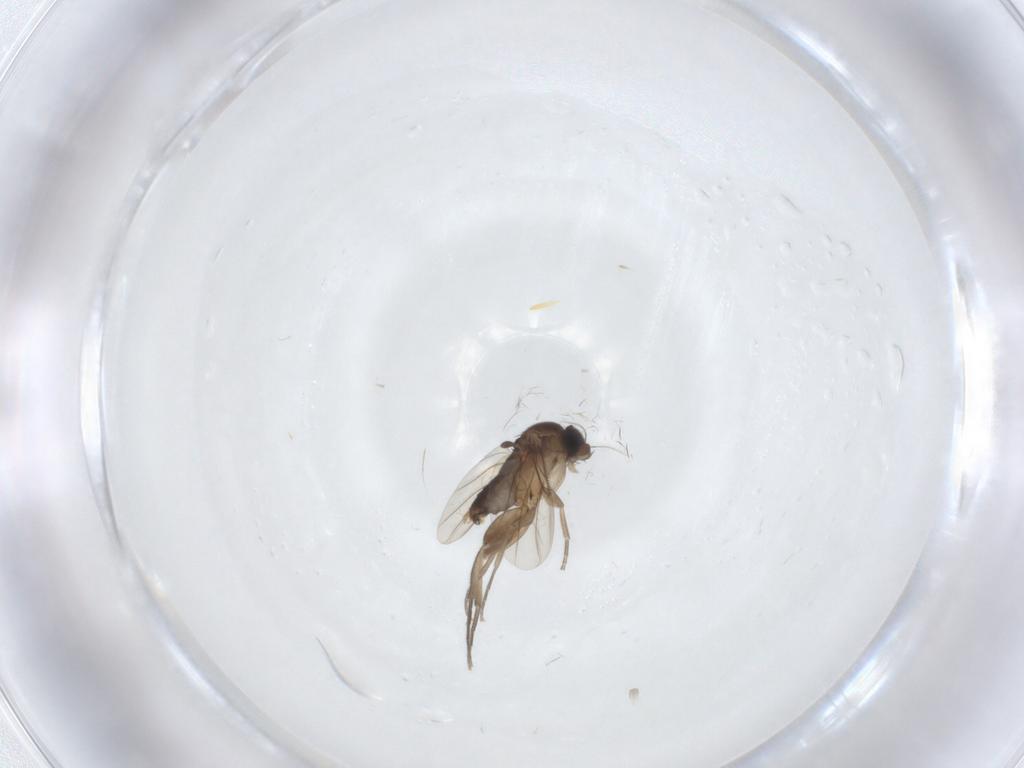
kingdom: Animalia
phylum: Arthropoda
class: Insecta
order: Diptera
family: Phoridae
